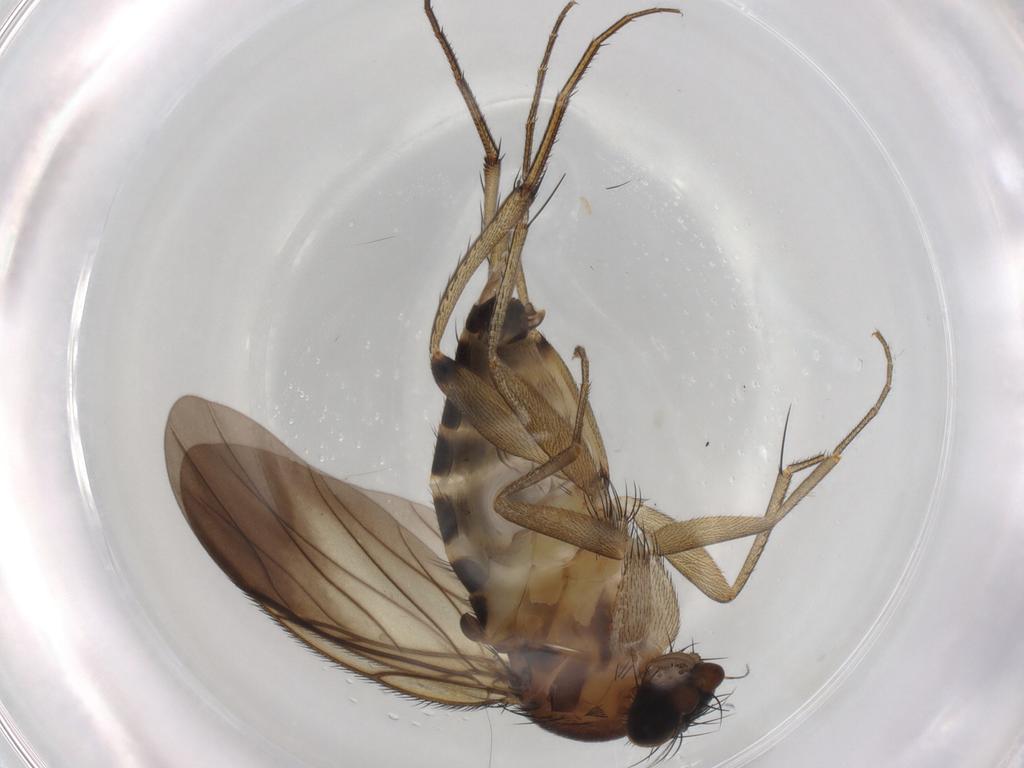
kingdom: Animalia
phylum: Arthropoda
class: Insecta
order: Diptera
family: Phoridae
